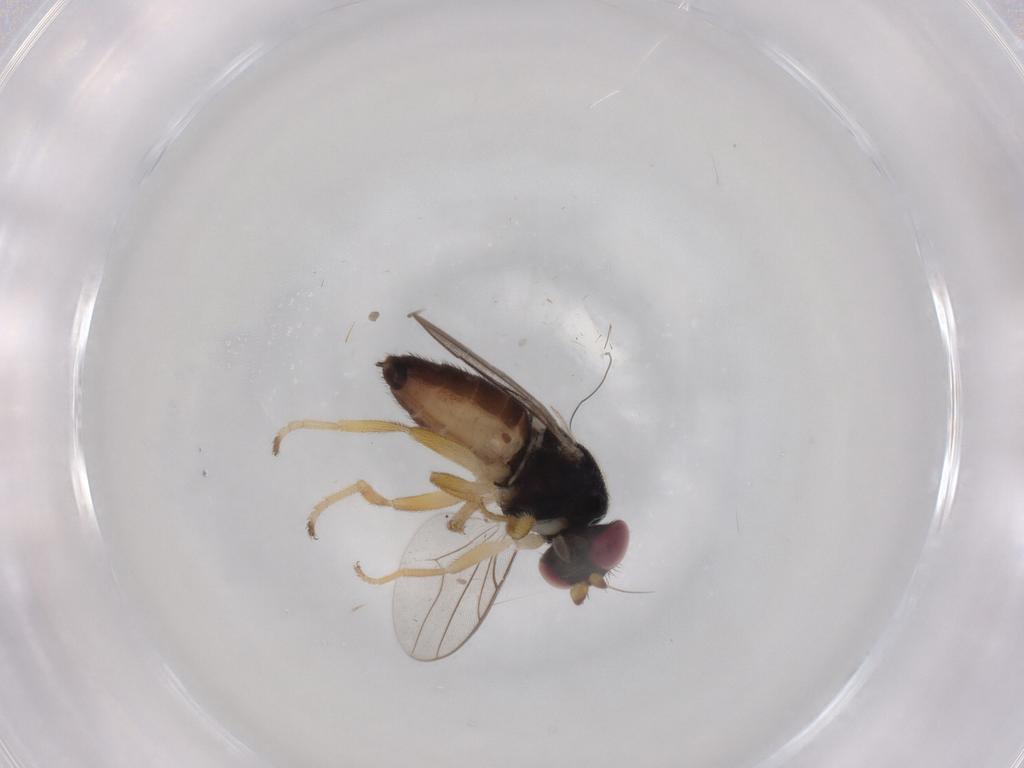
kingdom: Animalia
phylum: Arthropoda
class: Insecta
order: Diptera
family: Chloropidae
